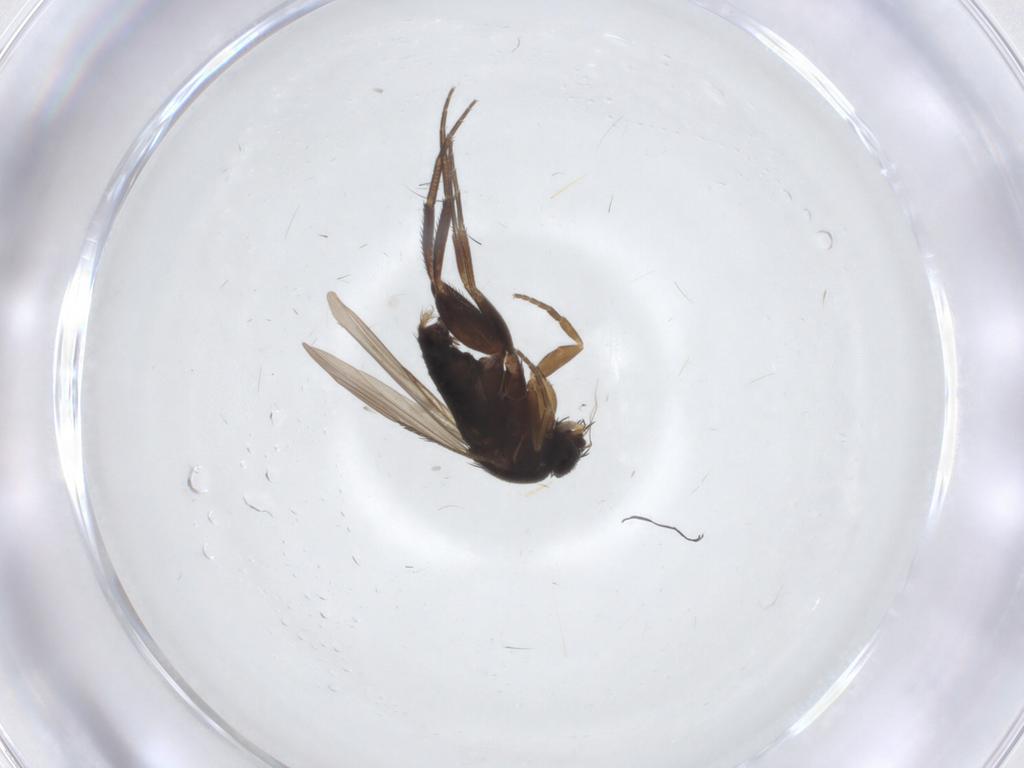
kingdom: Animalia
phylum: Arthropoda
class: Insecta
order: Diptera
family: Phoridae
